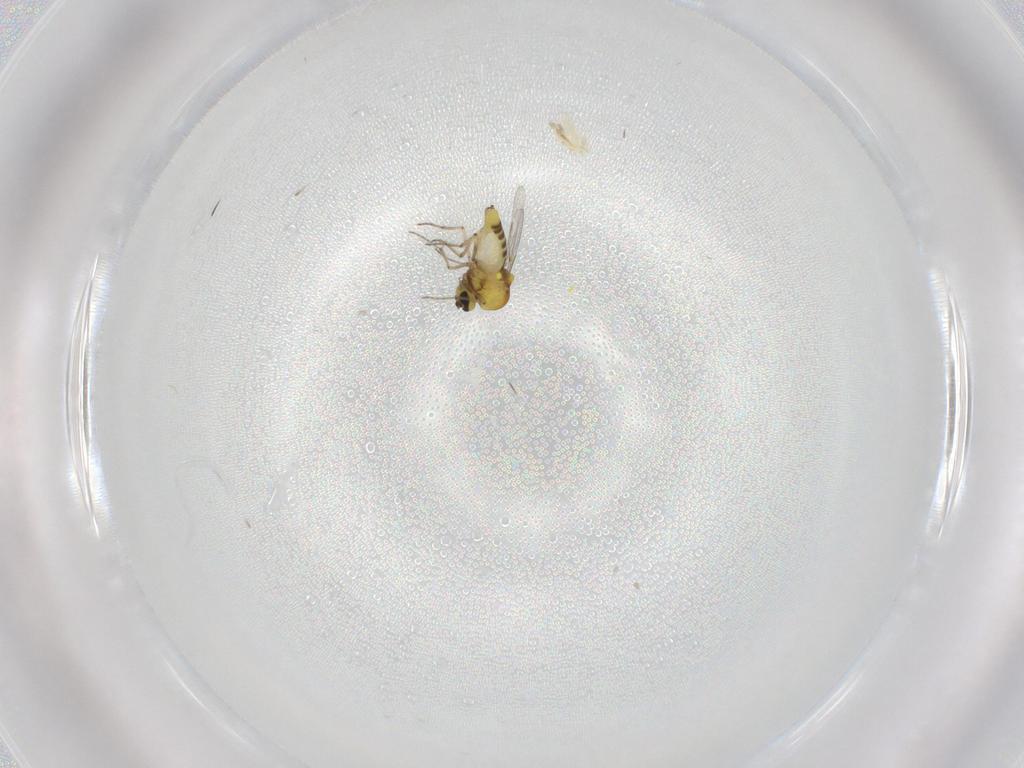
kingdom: Animalia
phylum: Arthropoda
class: Insecta
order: Diptera
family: Ceratopogonidae
